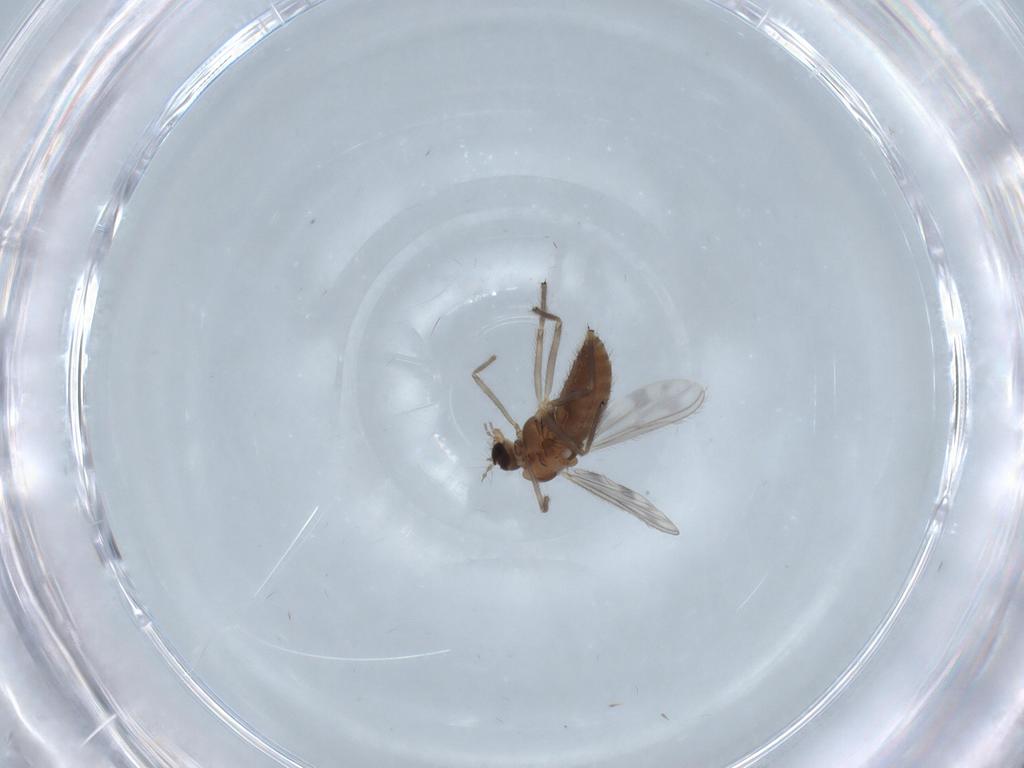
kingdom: Animalia
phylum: Arthropoda
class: Insecta
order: Diptera
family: Chironomidae
